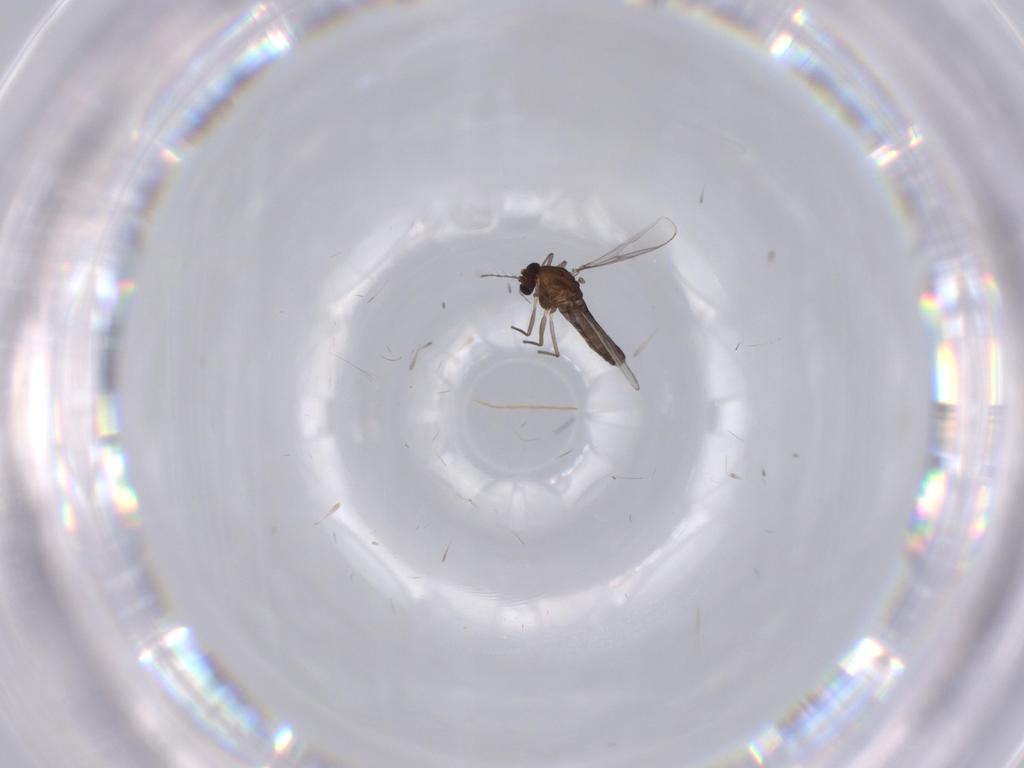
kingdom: Animalia
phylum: Arthropoda
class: Insecta
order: Diptera
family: Chironomidae
